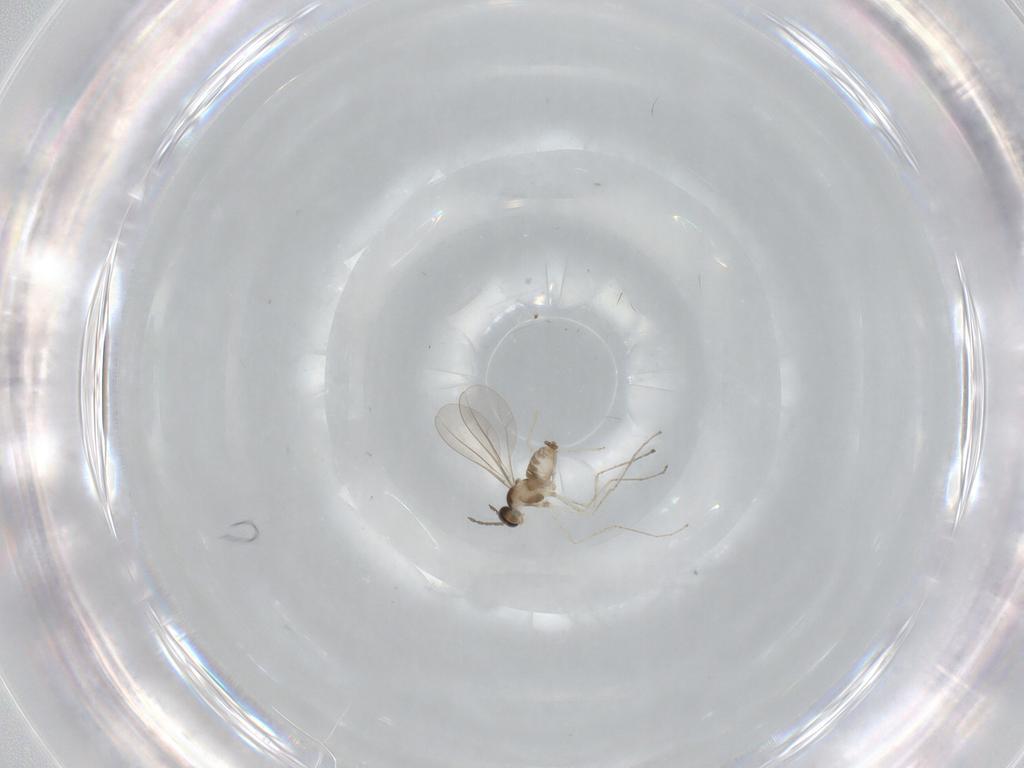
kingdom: Animalia
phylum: Arthropoda
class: Insecta
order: Diptera
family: Cecidomyiidae
